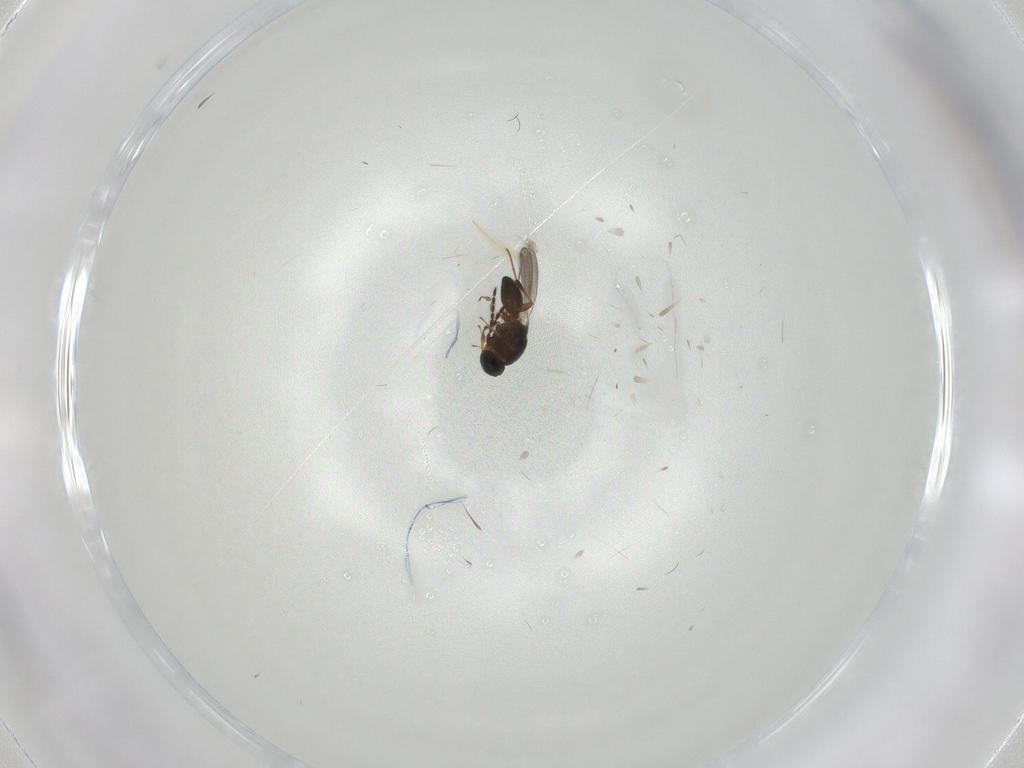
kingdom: Animalia
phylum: Arthropoda
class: Insecta
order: Hymenoptera
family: Platygastridae
